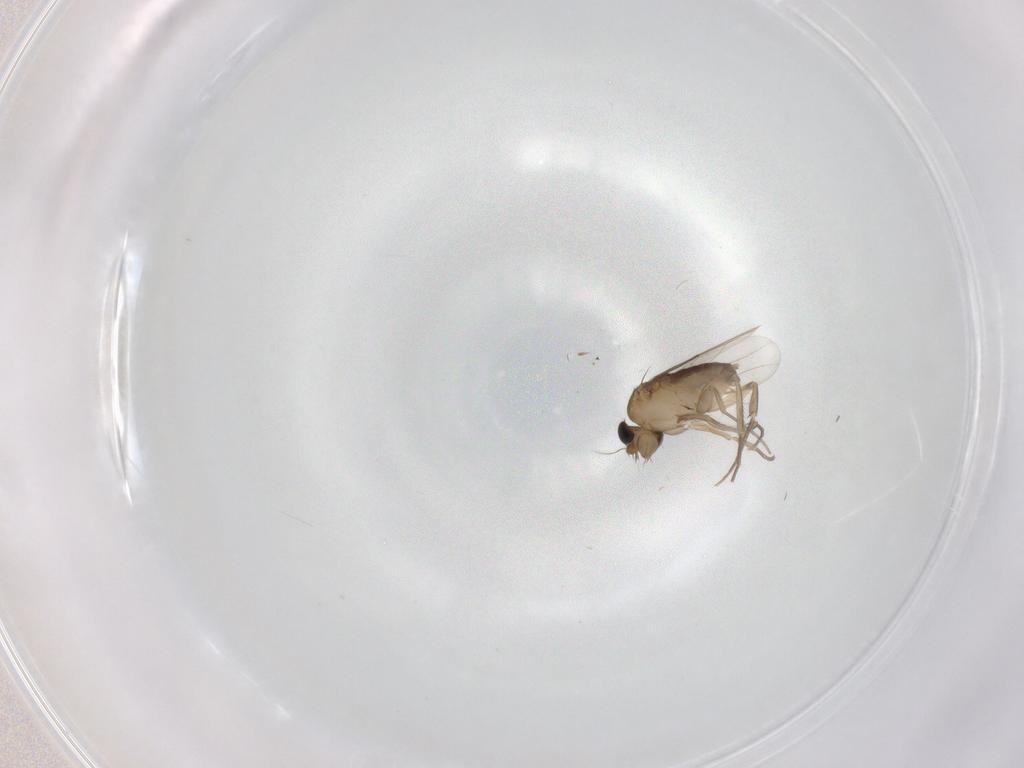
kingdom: Animalia
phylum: Arthropoda
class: Insecta
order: Diptera
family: Phoridae
